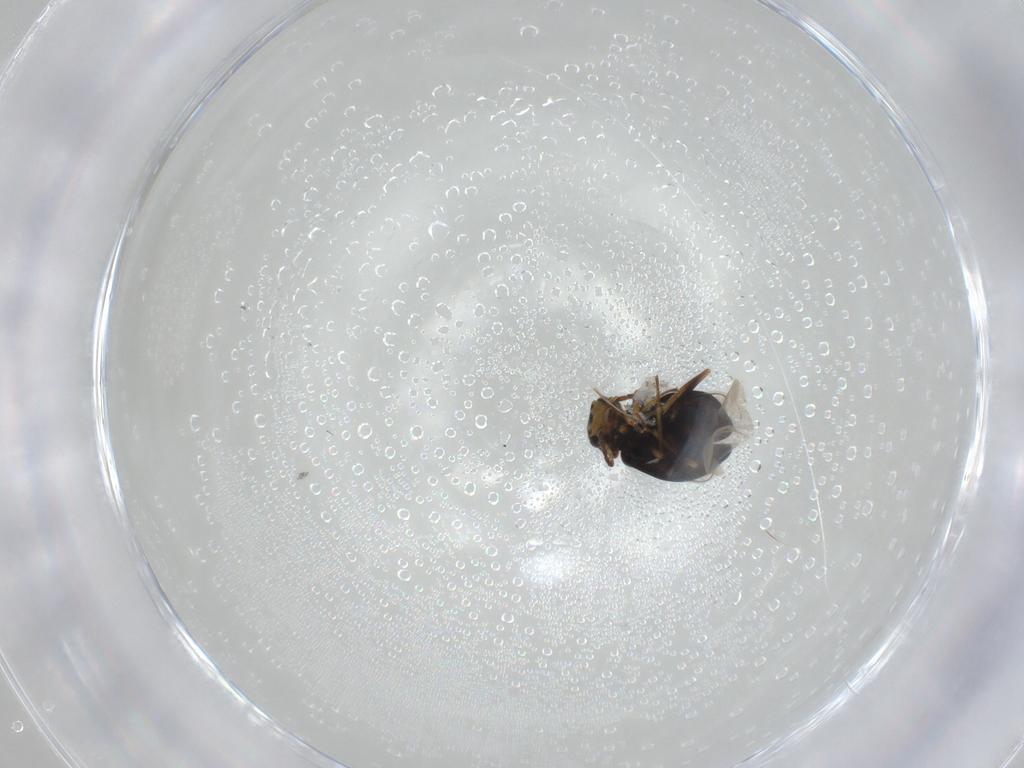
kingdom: Animalia
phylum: Arthropoda
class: Insecta
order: Coleoptera
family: Melyridae
